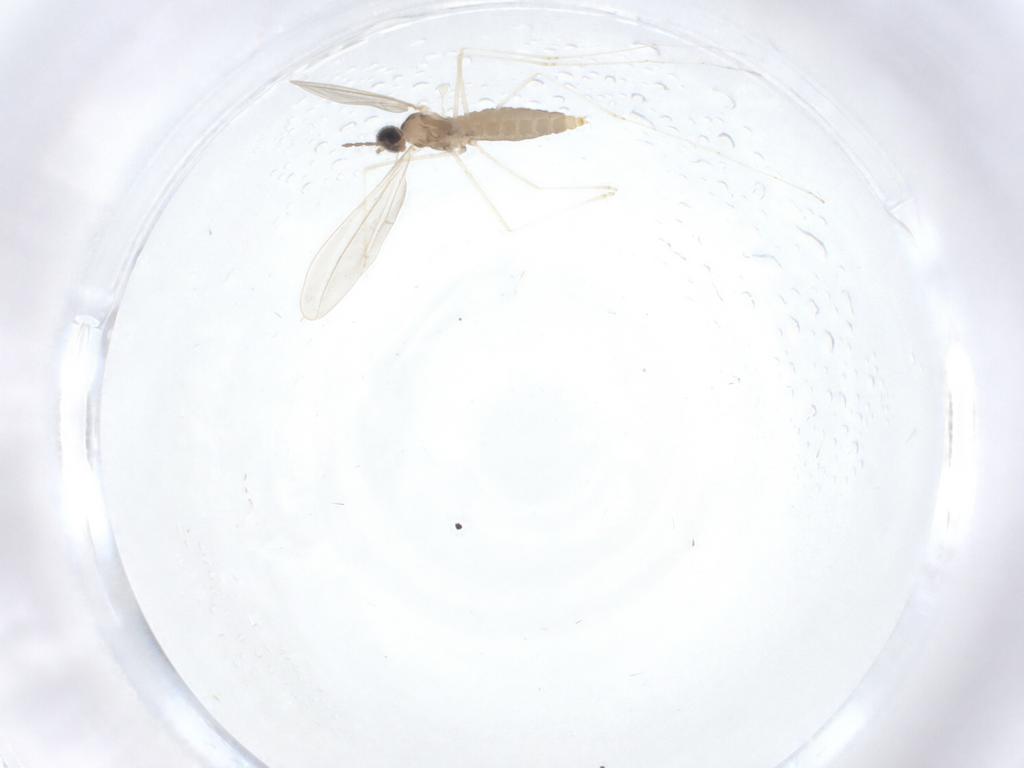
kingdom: Animalia
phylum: Arthropoda
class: Insecta
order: Diptera
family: Cecidomyiidae
